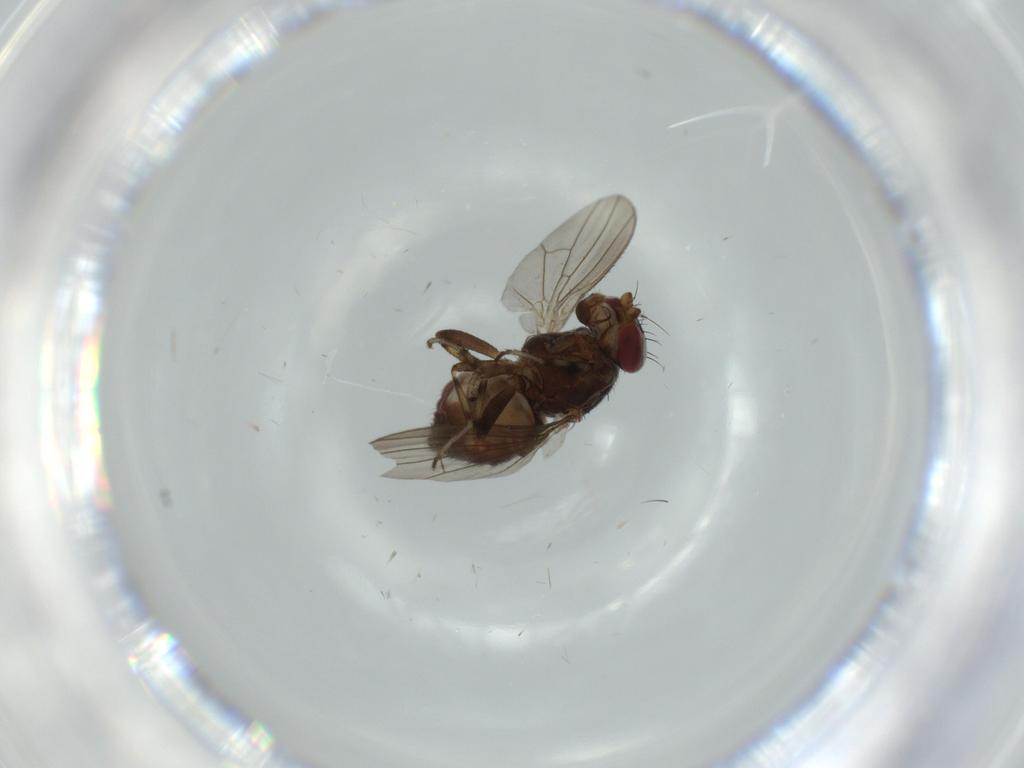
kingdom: Animalia
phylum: Arthropoda
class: Insecta
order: Diptera
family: Heleomyzidae
